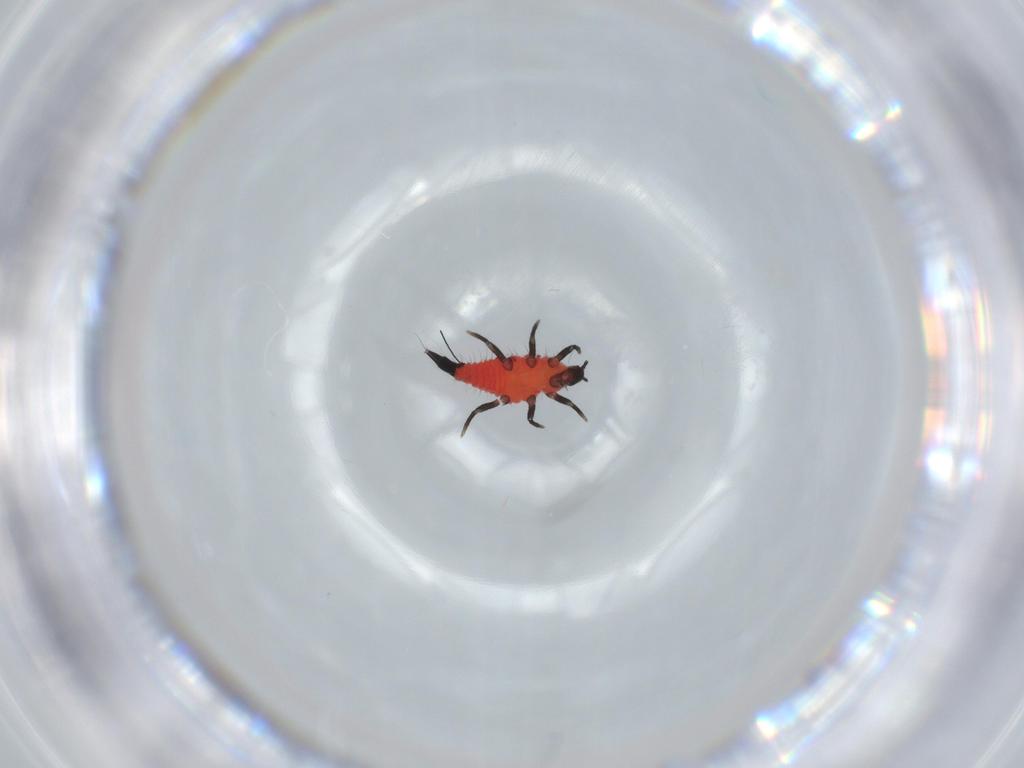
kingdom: Animalia
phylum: Arthropoda
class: Insecta
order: Thysanoptera
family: Phlaeothripidae
